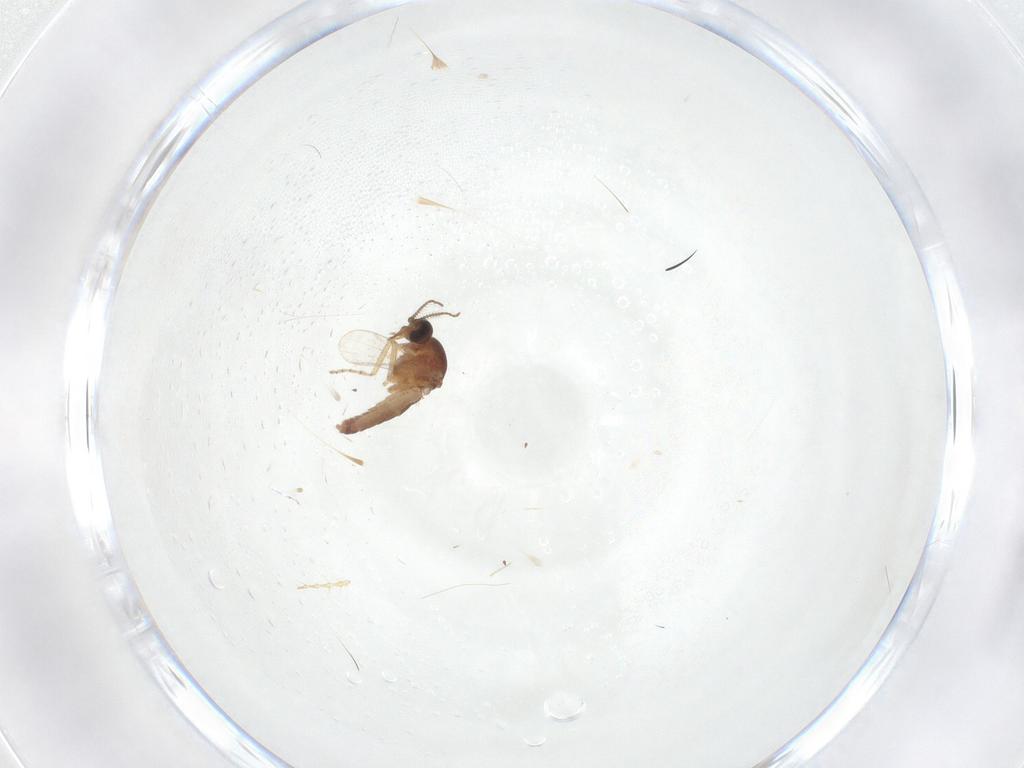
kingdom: Animalia
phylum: Arthropoda
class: Insecta
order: Diptera
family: Ceratopogonidae
